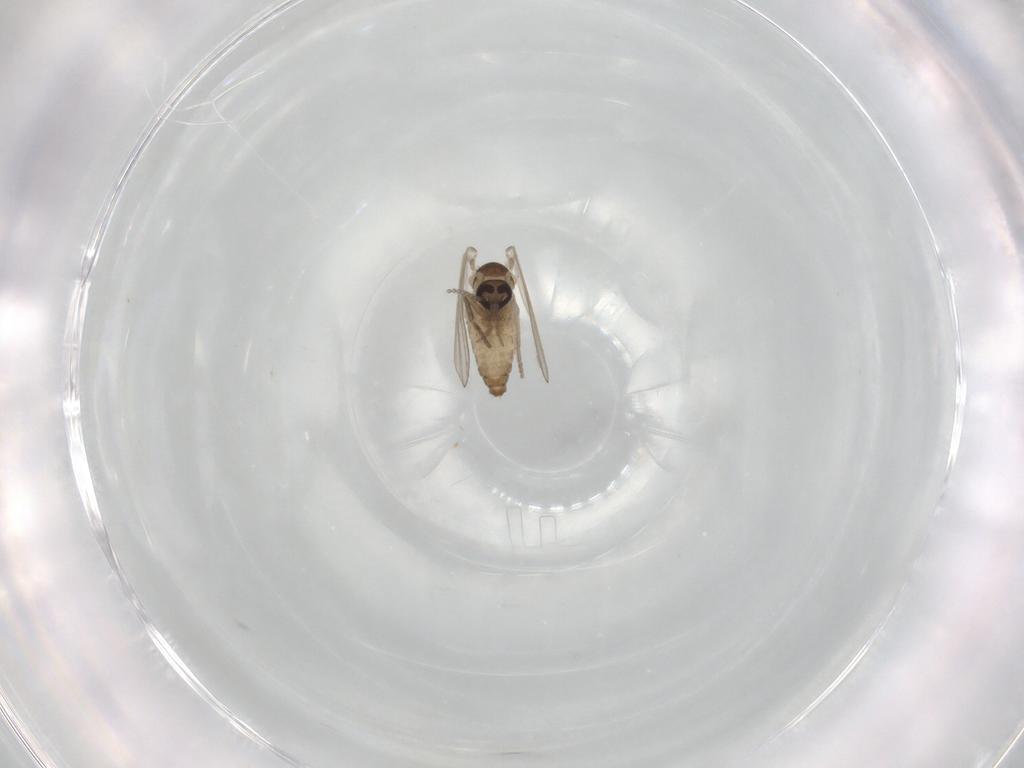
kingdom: Animalia
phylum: Arthropoda
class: Insecta
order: Diptera
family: Psychodidae
